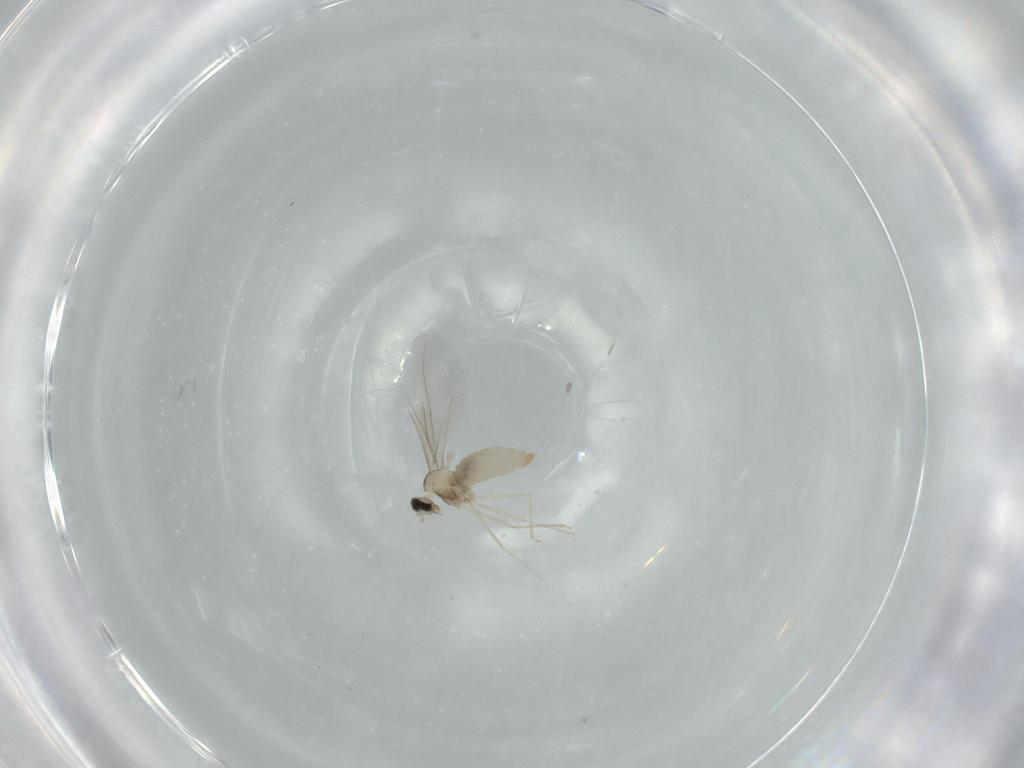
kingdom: Animalia
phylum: Arthropoda
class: Insecta
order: Diptera
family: Cecidomyiidae
